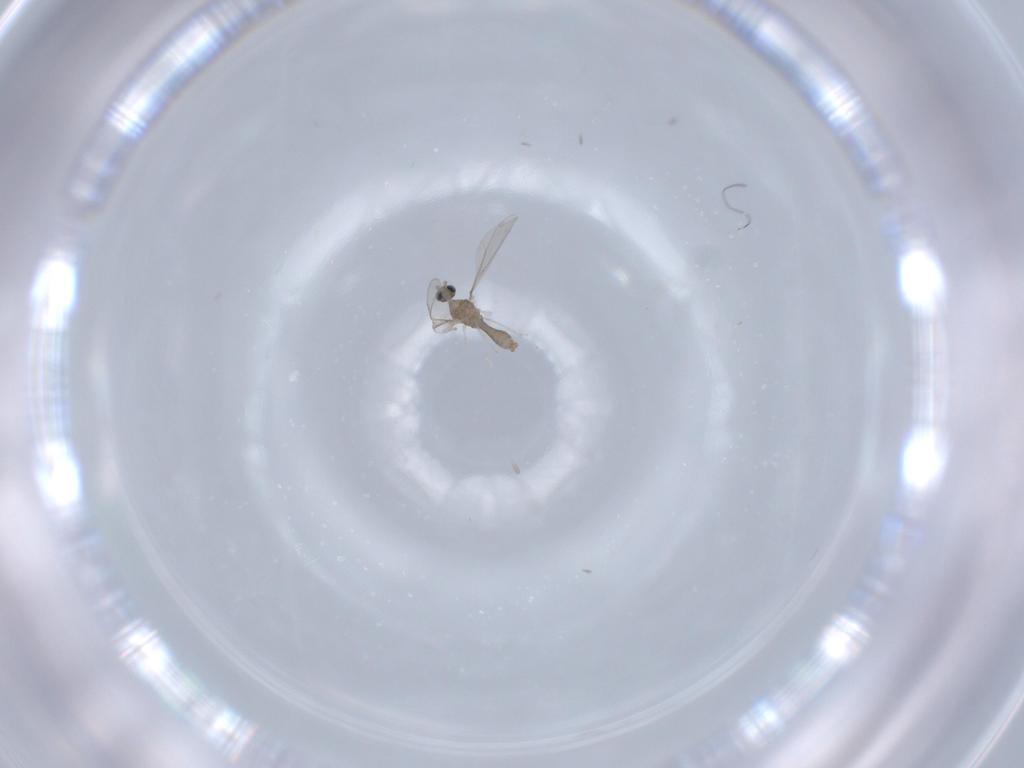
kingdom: Animalia
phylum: Arthropoda
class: Insecta
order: Diptera
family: Cecidomyiidae
